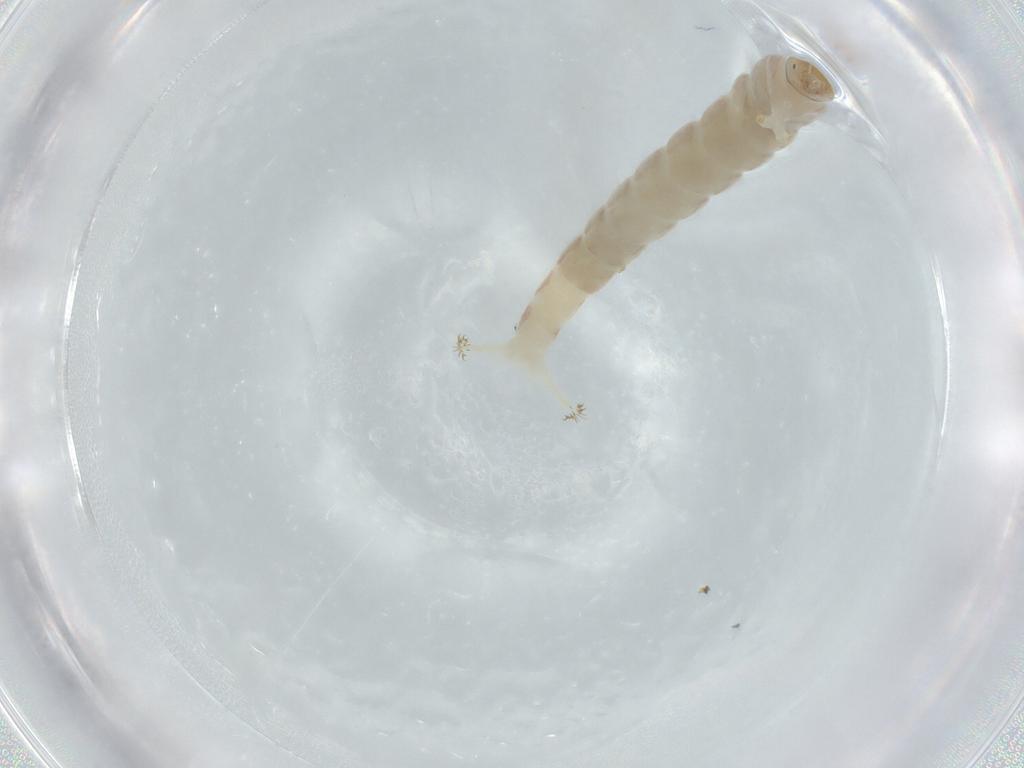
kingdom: Animalia
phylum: Arthropoda
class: Insecta
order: Diptera
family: Chironomidae
